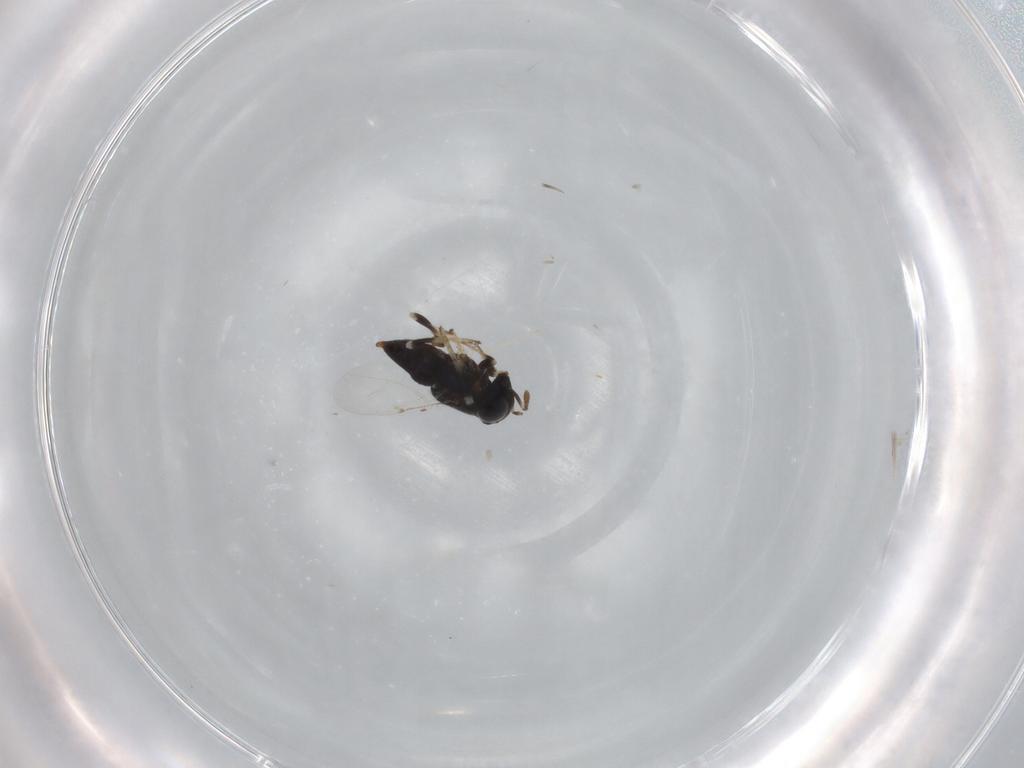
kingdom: Animalia
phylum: Arthropoda
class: Insecta
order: Hymenoptera
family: Encyrtidae
